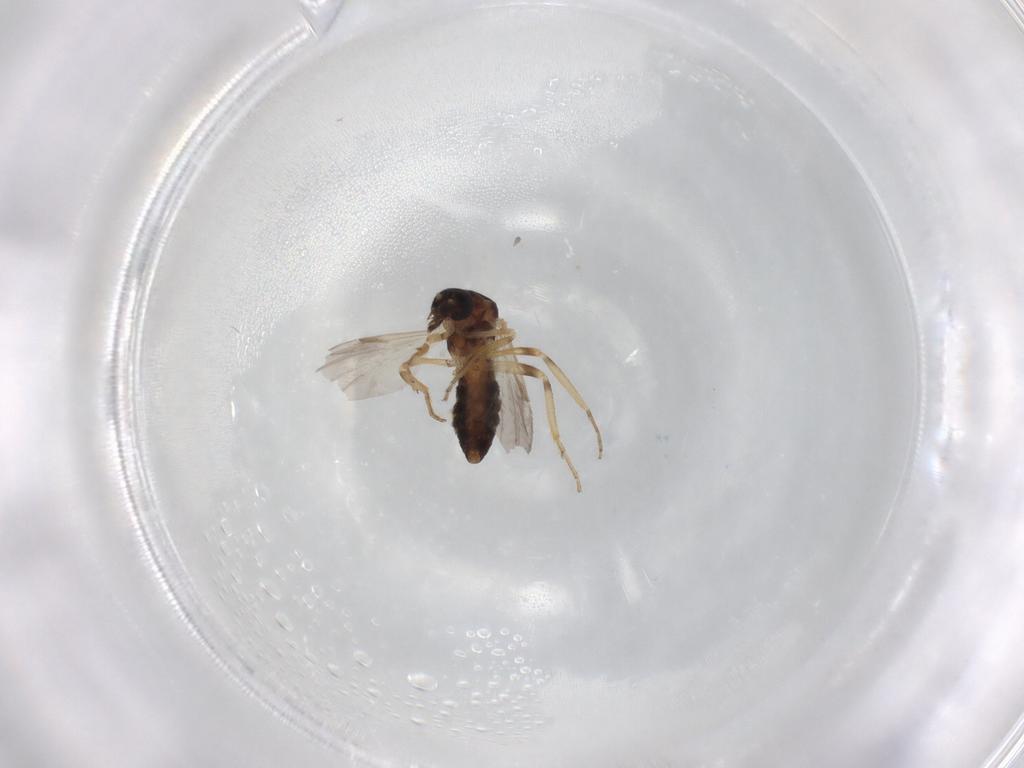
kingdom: Animalia
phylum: Arthropoda
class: Insecta
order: Diptera
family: Ceratopogonidae
